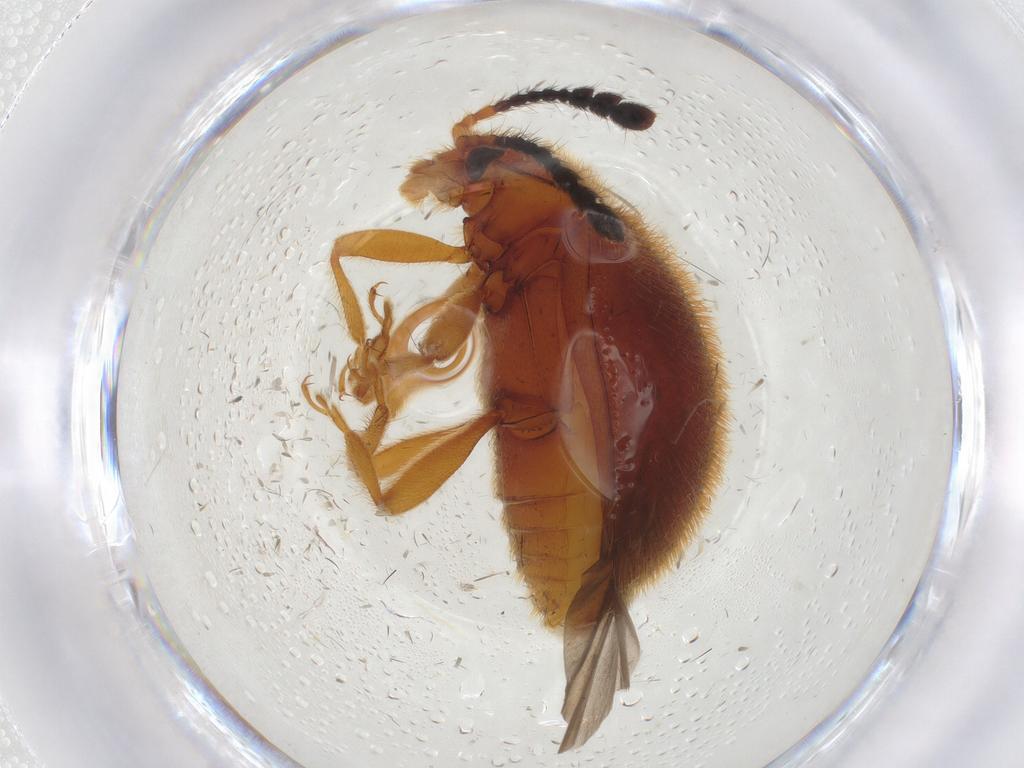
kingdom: Animalia
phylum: Arthropoda
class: Insecta
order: Coleoptera
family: Endomychidae
